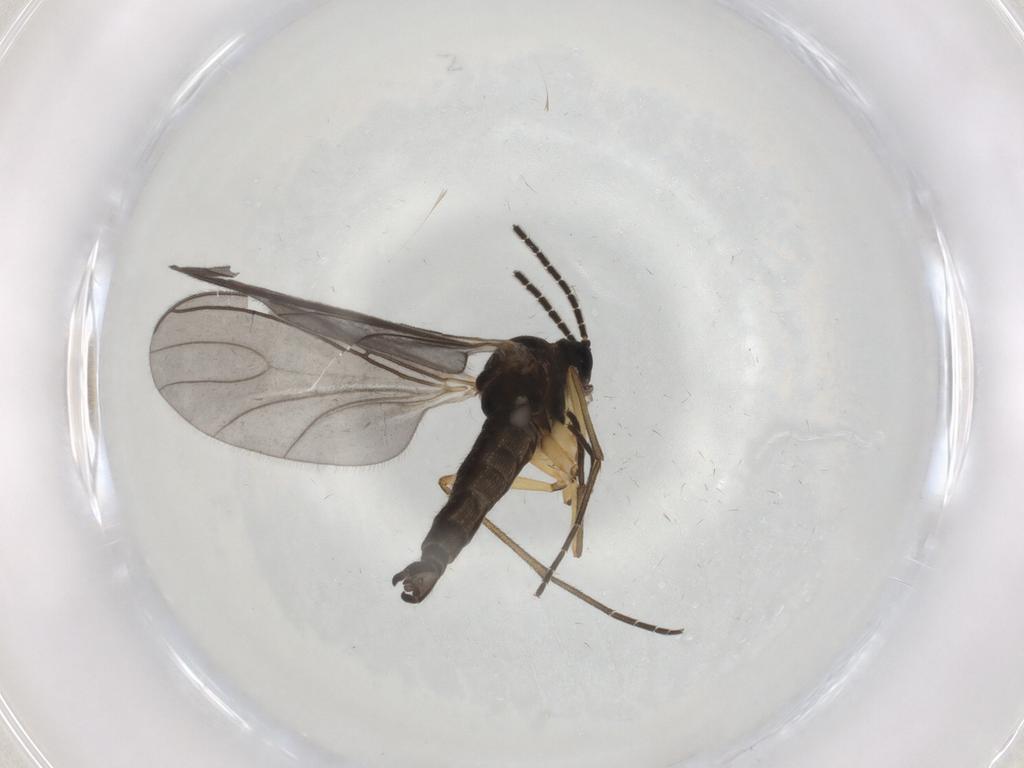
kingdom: Animalia
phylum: Arthropoda
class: Insecta
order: Diptera
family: Sciaridae
